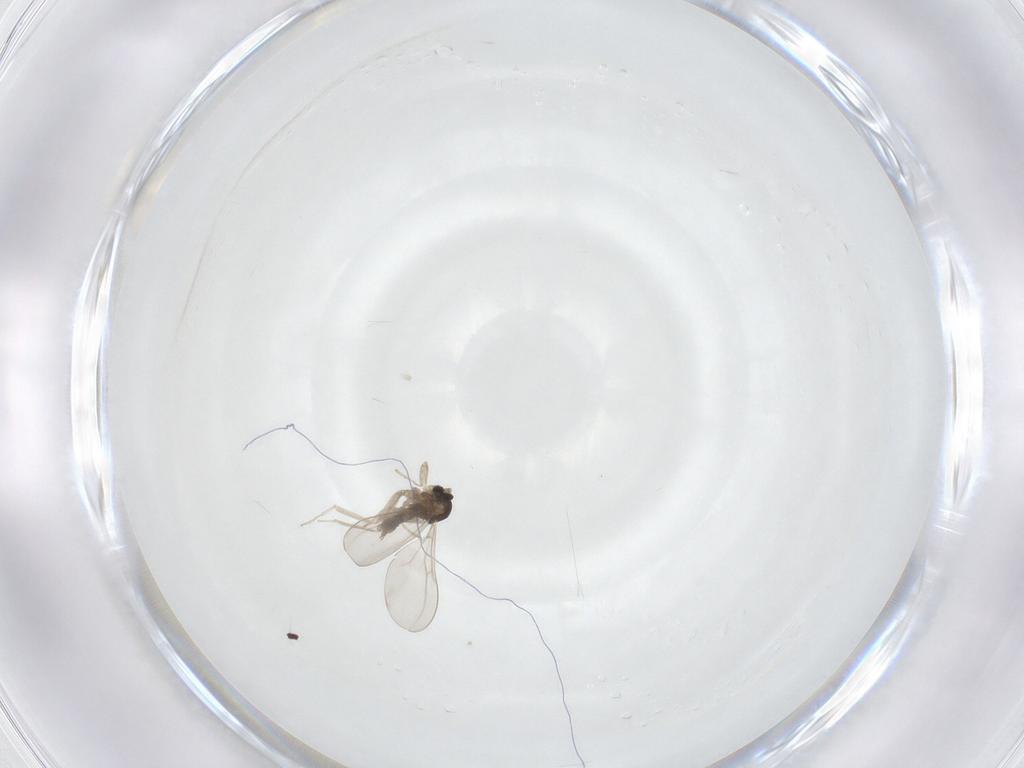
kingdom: Animalia
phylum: Arthropoda
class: Insecta
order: Diptera
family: Cecidomyiidae
